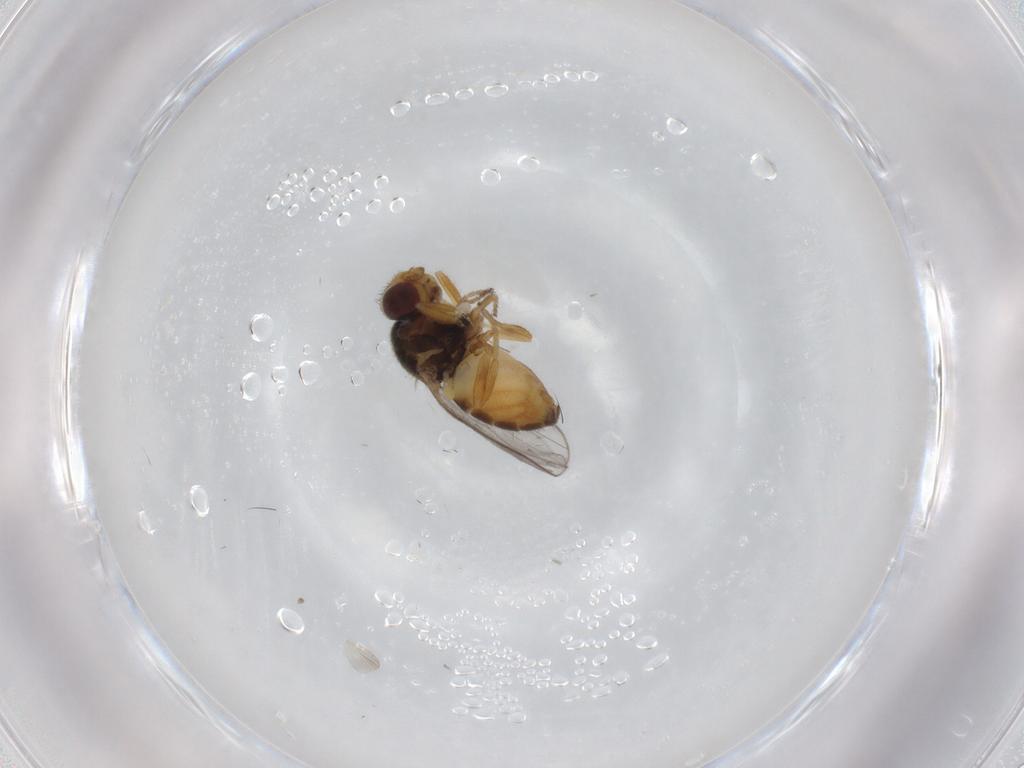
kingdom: Animalia
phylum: Arthropoda
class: Insecta
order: Diptera
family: Chloropidae
